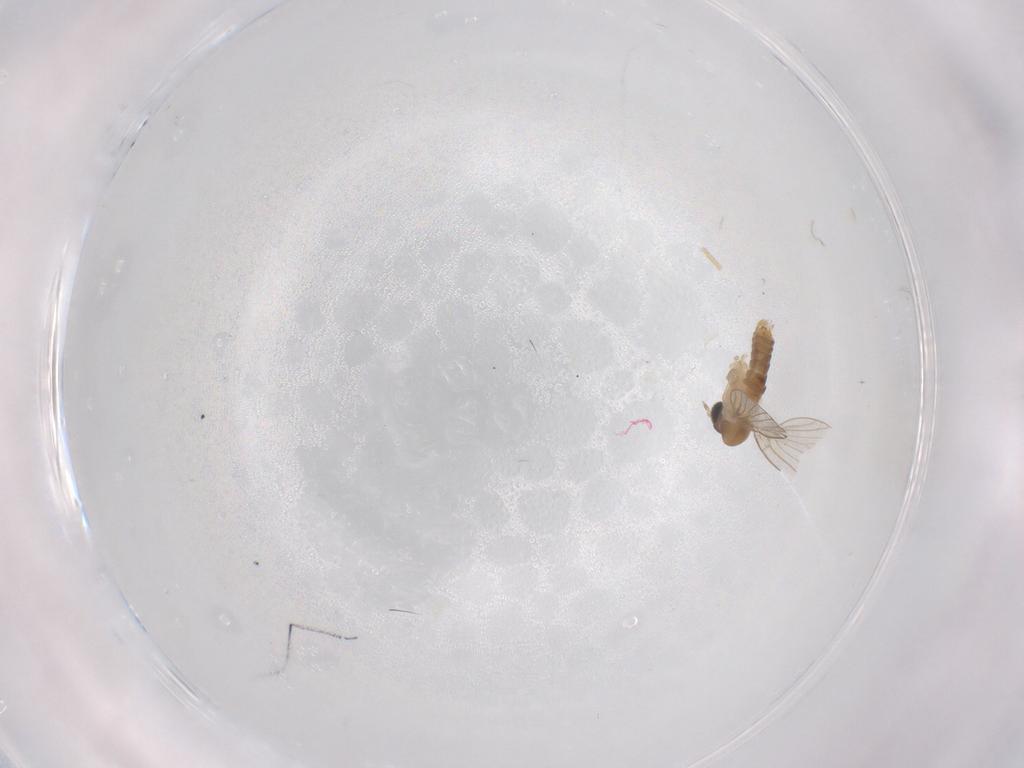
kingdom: Animalia
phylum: Arthropoda
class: Insecta
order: Diptera
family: Psychodidae
